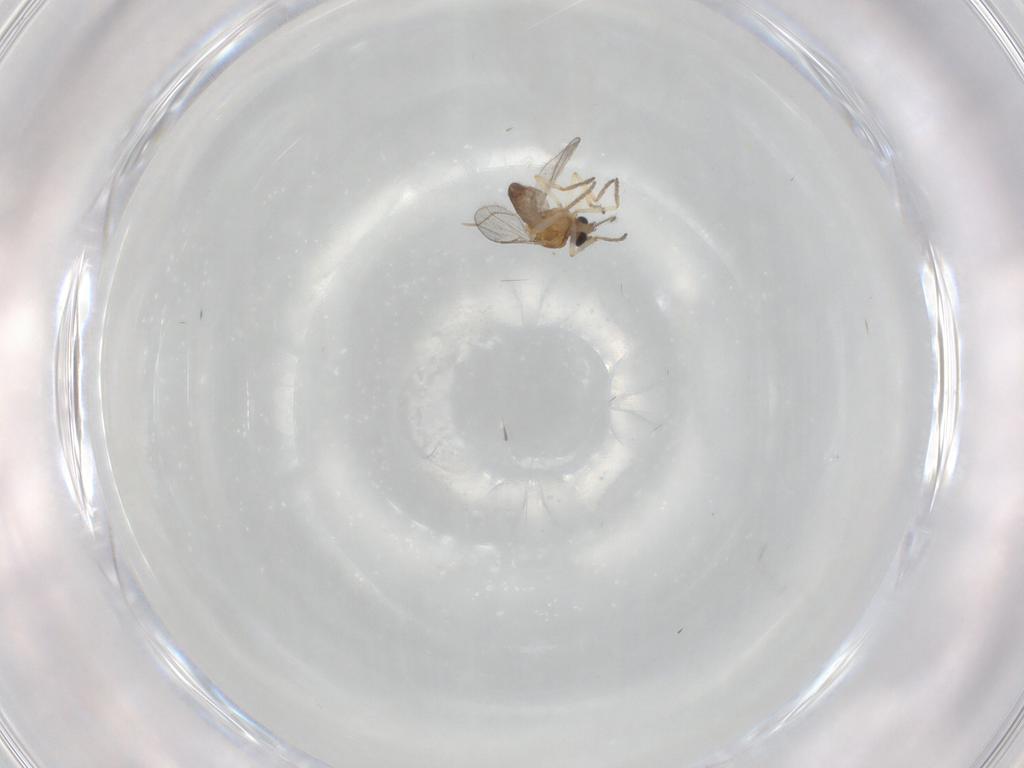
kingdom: Animalia
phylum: Arthropoda
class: Insecta
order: Diptera
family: Ceratopogonidae
